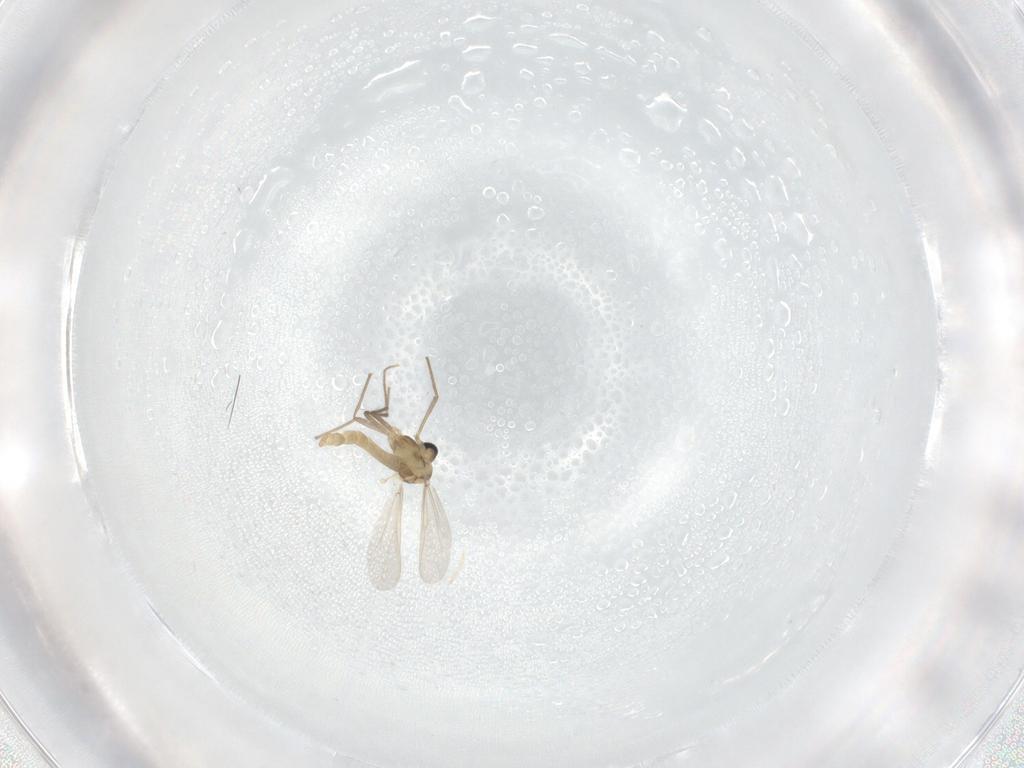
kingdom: Animalia
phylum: Arthropoda
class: Insecta
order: Diptera
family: Chironomidae
